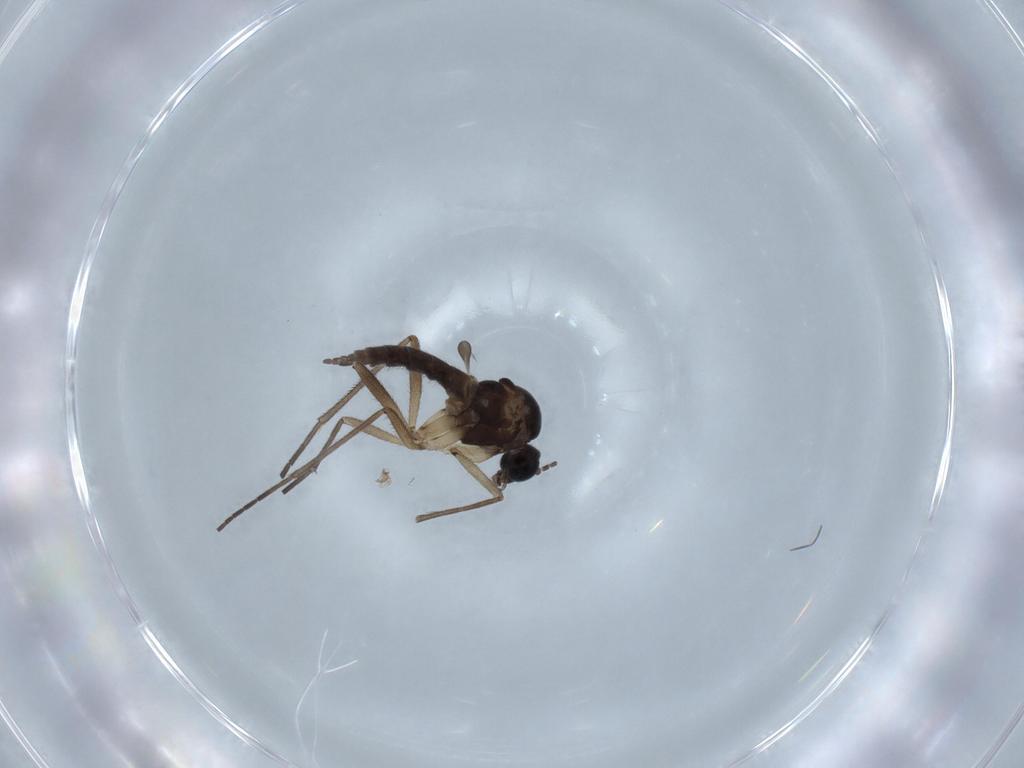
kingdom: Animalia
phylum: Arthropoda
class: Insecta
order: Diptera
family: Sciaridae
